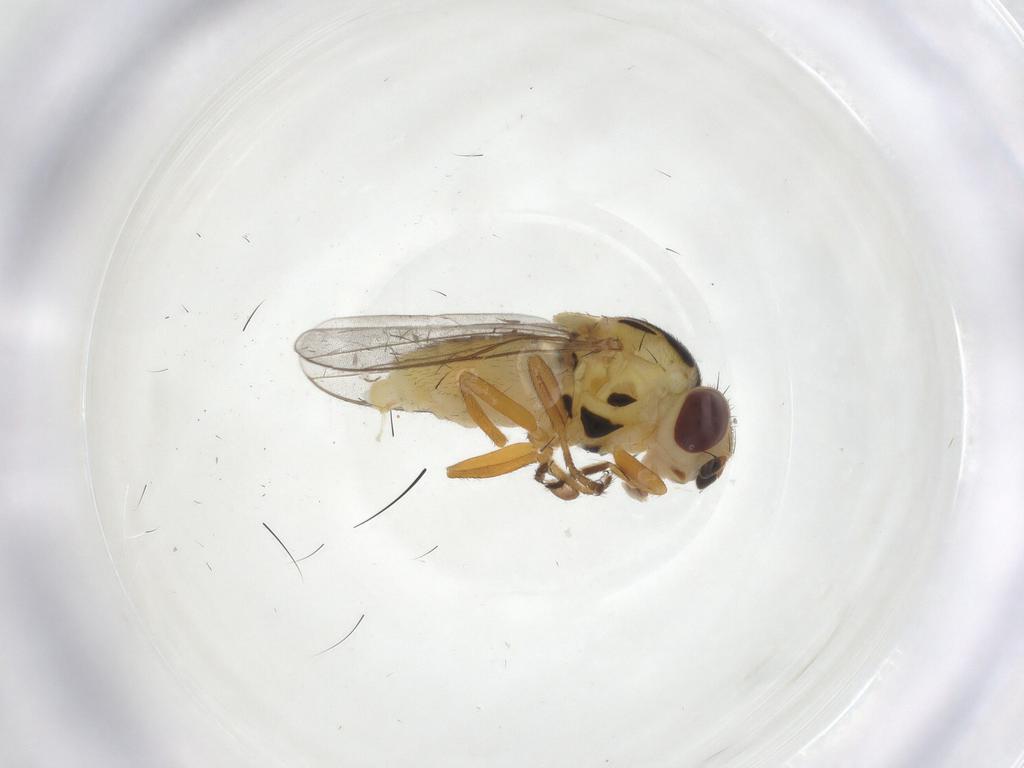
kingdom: Animalia
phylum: Arthropoda
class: Insecta
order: Diptera
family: Chloropidae
